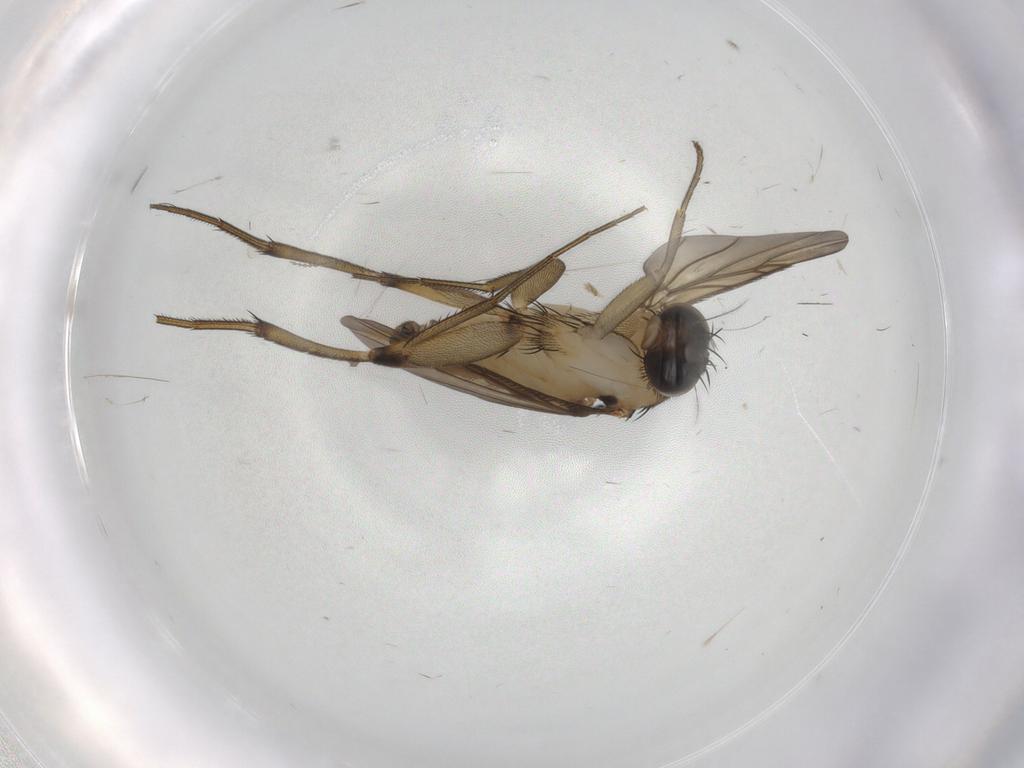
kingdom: Animalia
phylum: Arthropoda
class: Insecta
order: Diptera
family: Phoridae
